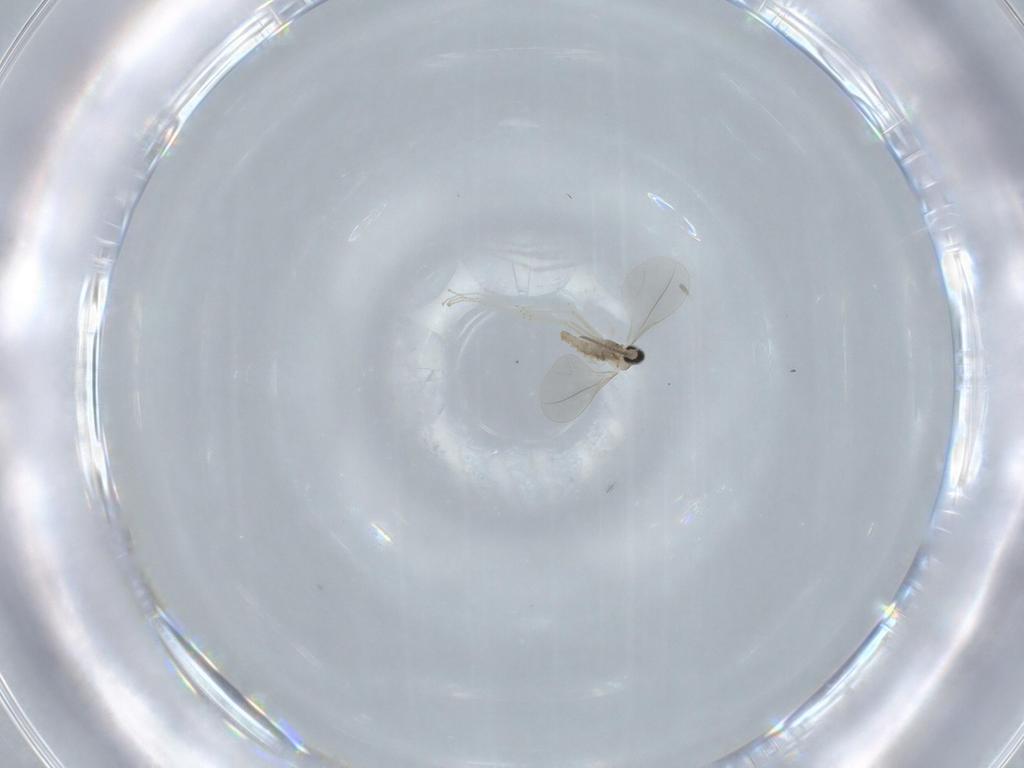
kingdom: Animalia
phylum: Arthropoda
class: Insecta
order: Diptera
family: Cecidomyiidae
